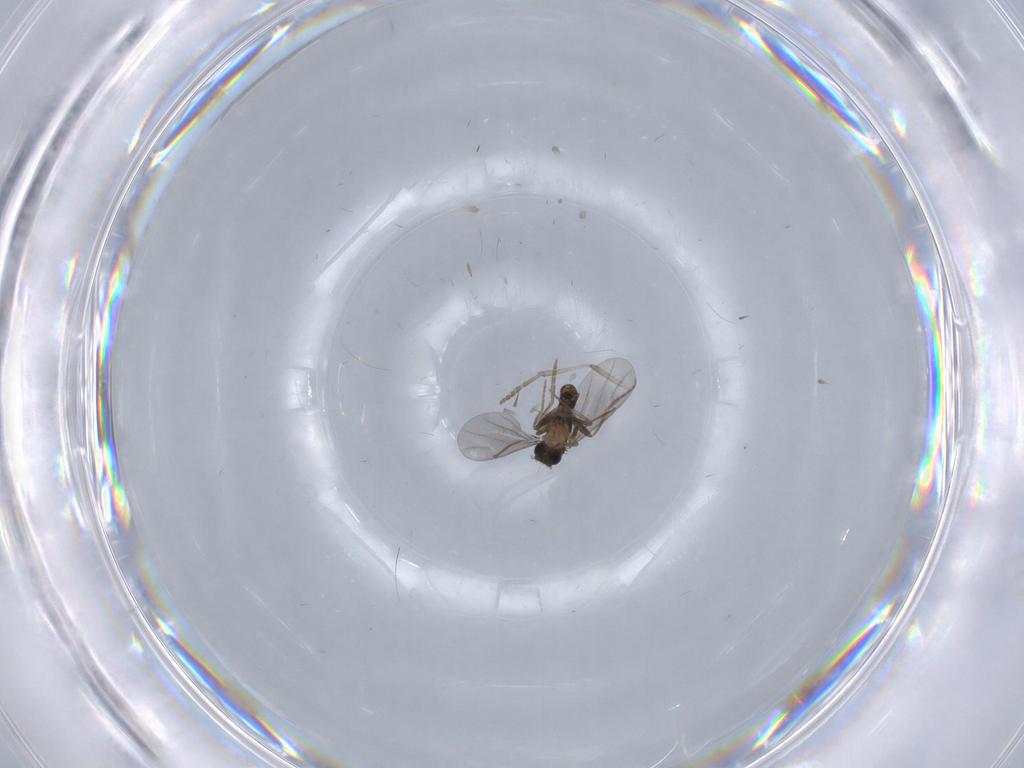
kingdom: Animalia
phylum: Arthropoda
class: Insecta
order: Diptera
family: Psychodidae
